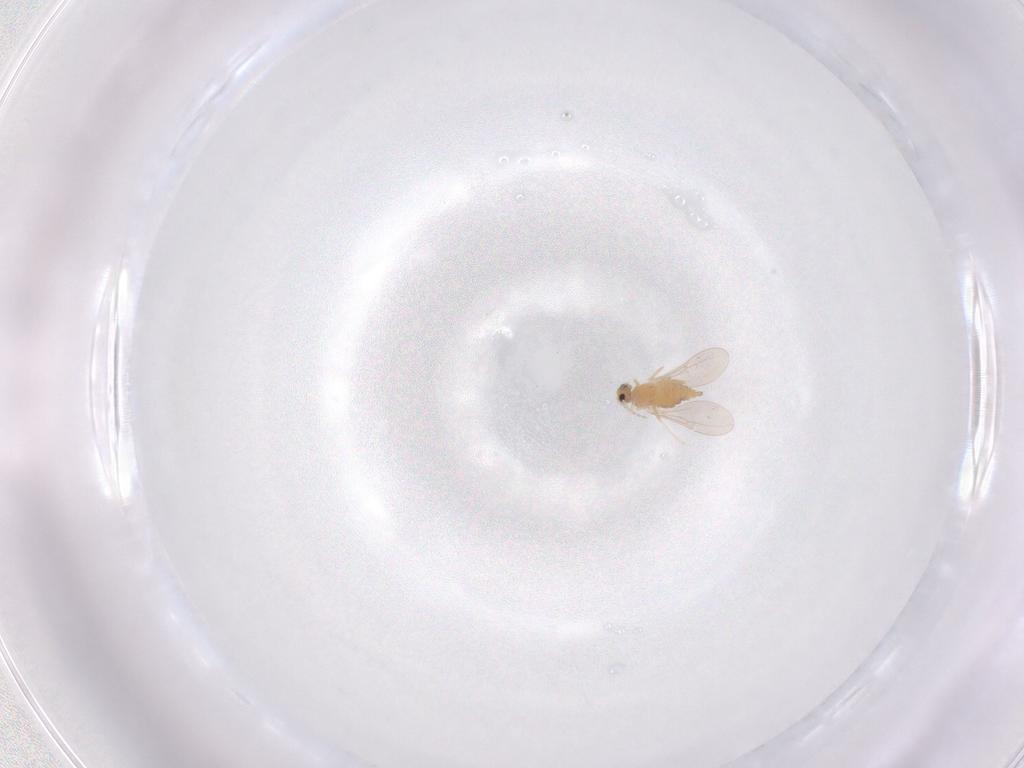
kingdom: Animalia
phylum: Arthropoda
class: Insecta
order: Diptera
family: Cecidomyiidae
